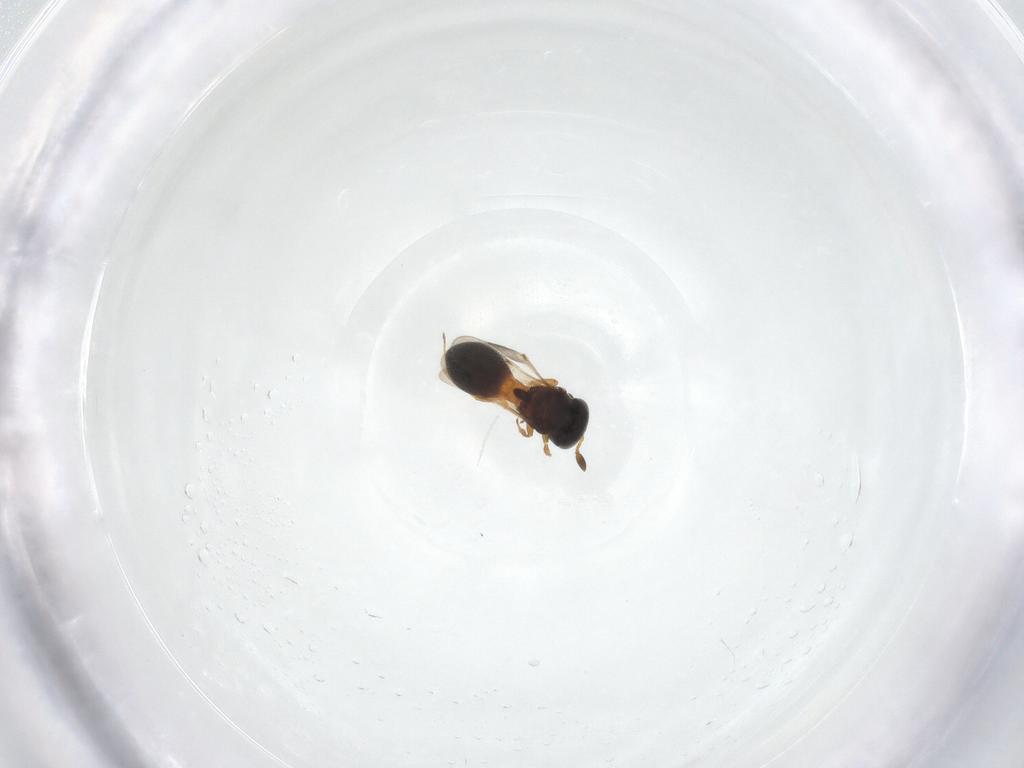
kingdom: Animalia
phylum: Arthropoda
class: Insecta
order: Hymenoptera
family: Scelionidae
